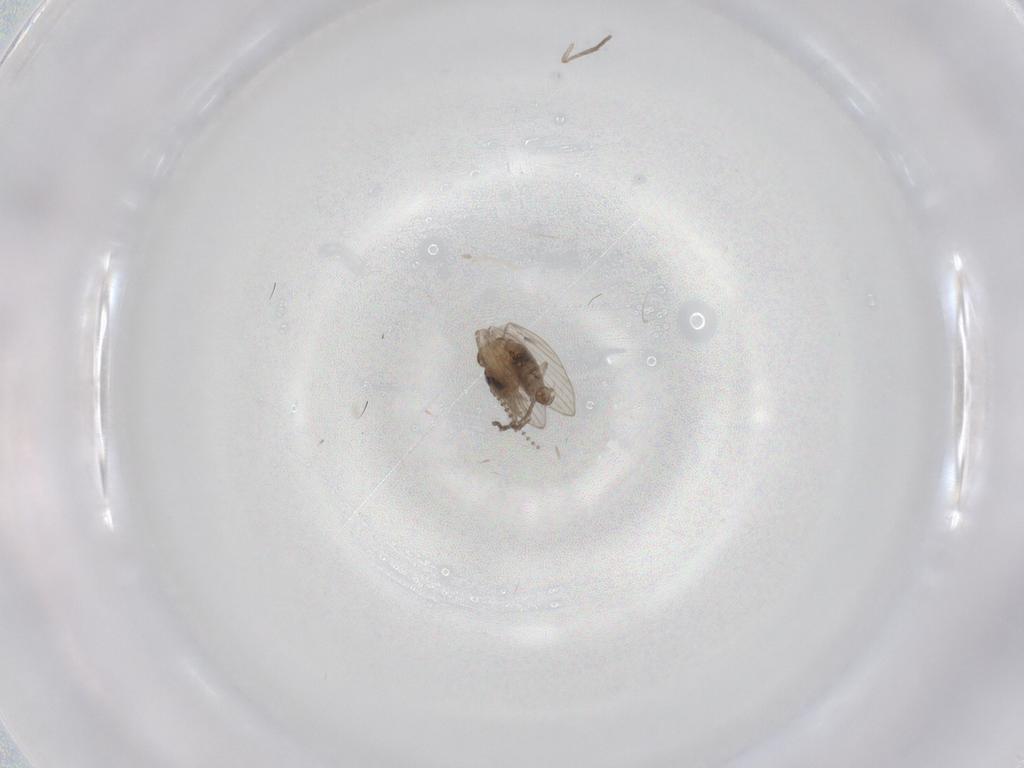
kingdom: Animalia
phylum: Arthropoda
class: Insecta
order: Diptera
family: Psychodidae
